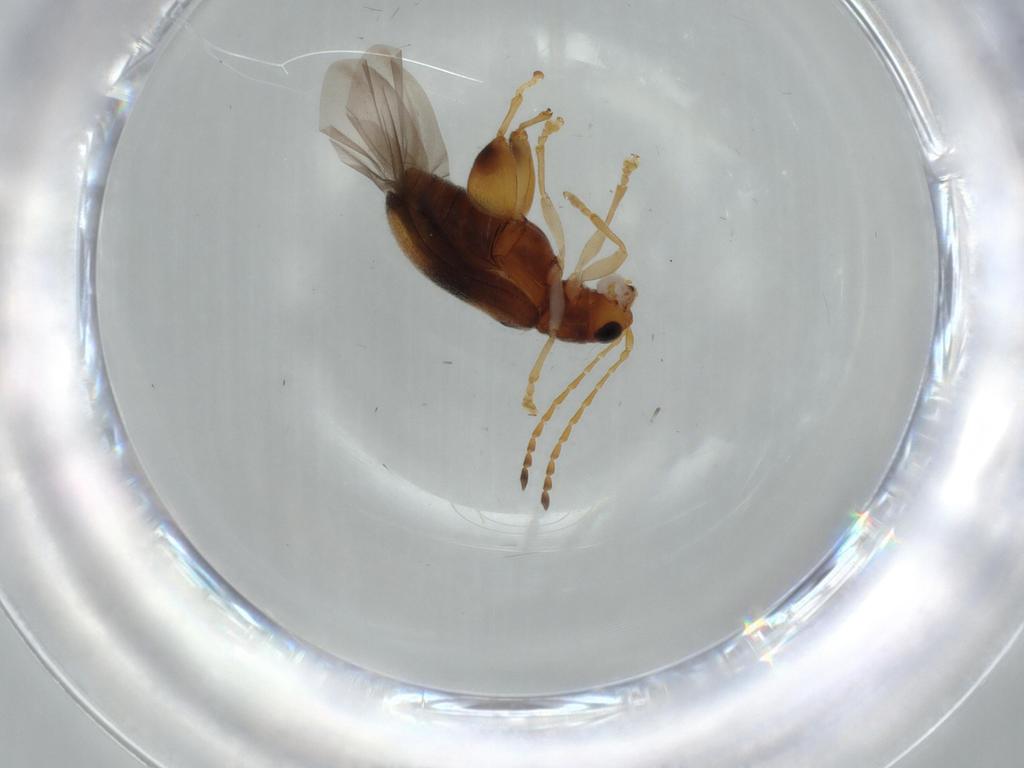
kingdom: Animalia
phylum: Arthropoda
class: Insecta
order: Coleoptera
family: Chrysomelidae
